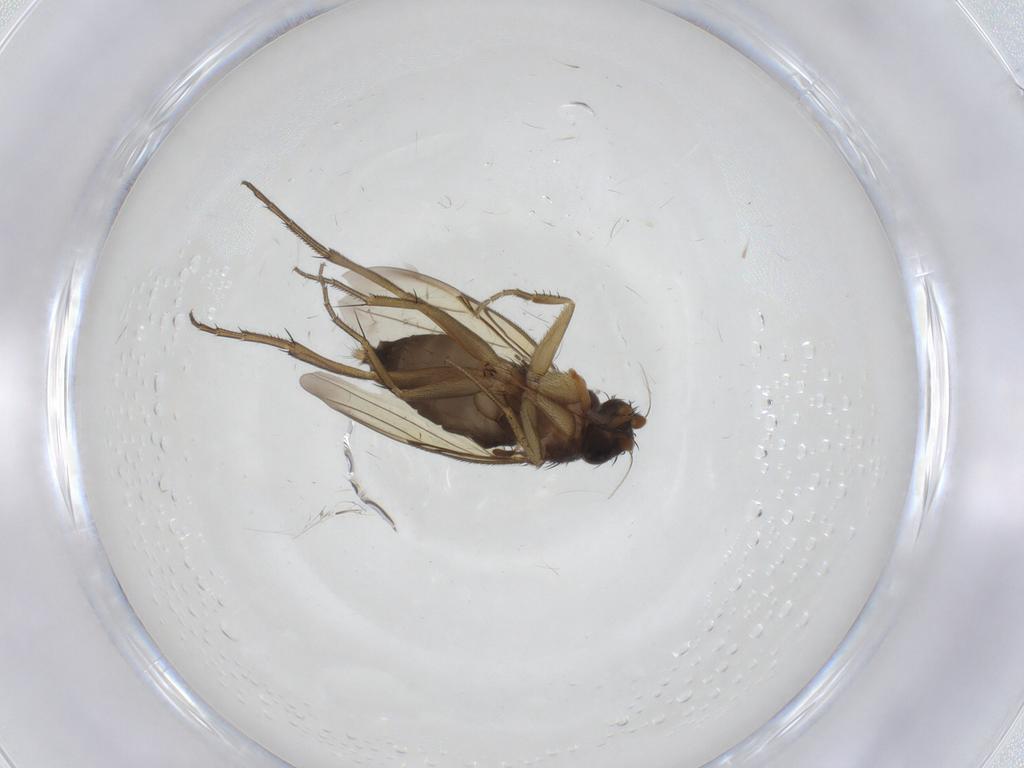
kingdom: Animalia
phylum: Arthropoda
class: Insecta
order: Diptera
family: Phoridae
